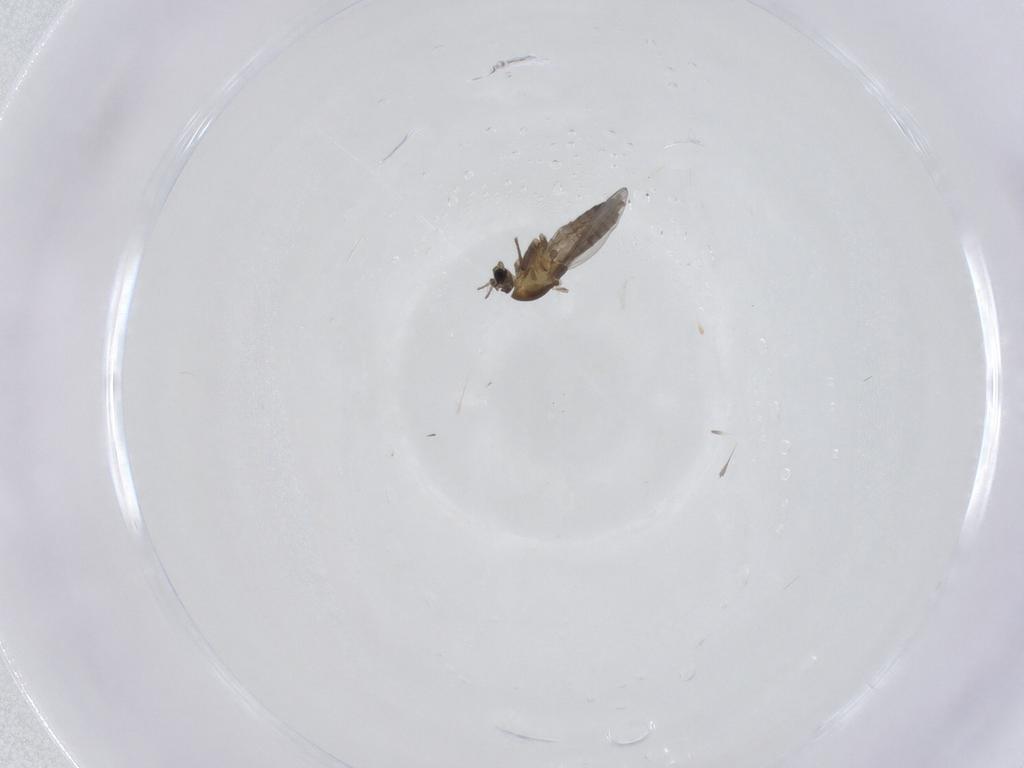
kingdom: Animalia
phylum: Arthropoda
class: Insecta
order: Diptera
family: Chironomidae
